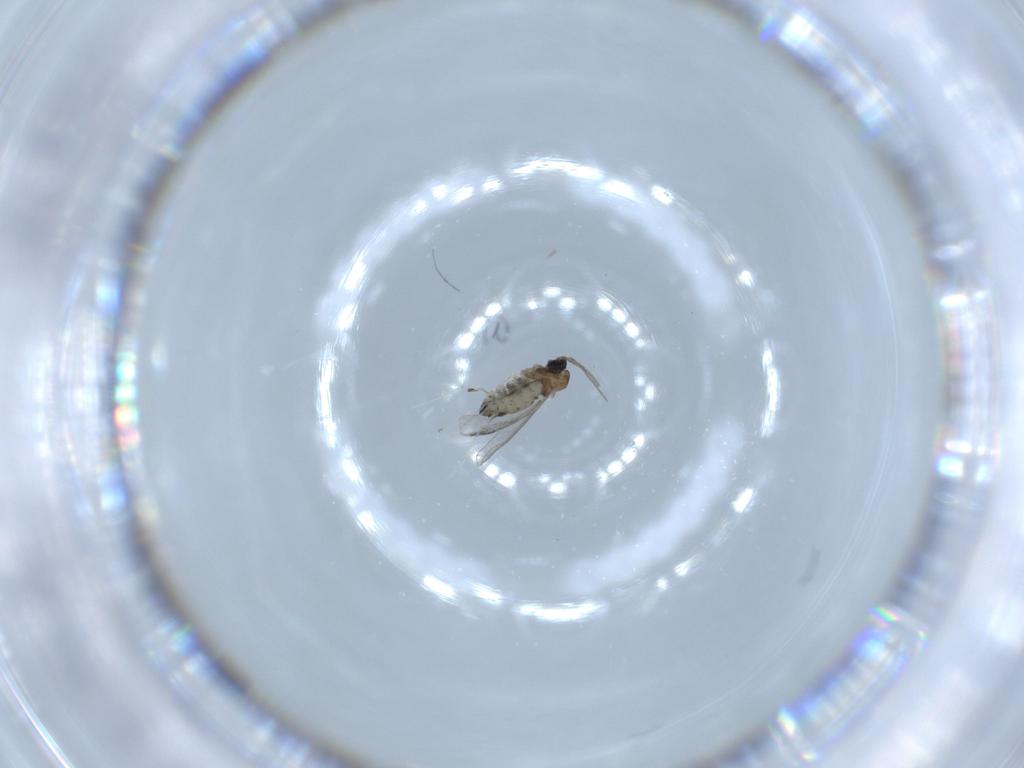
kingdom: Animalia
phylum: Arthropoda
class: Insecta
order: Diptera
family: Cecidomyiidae
